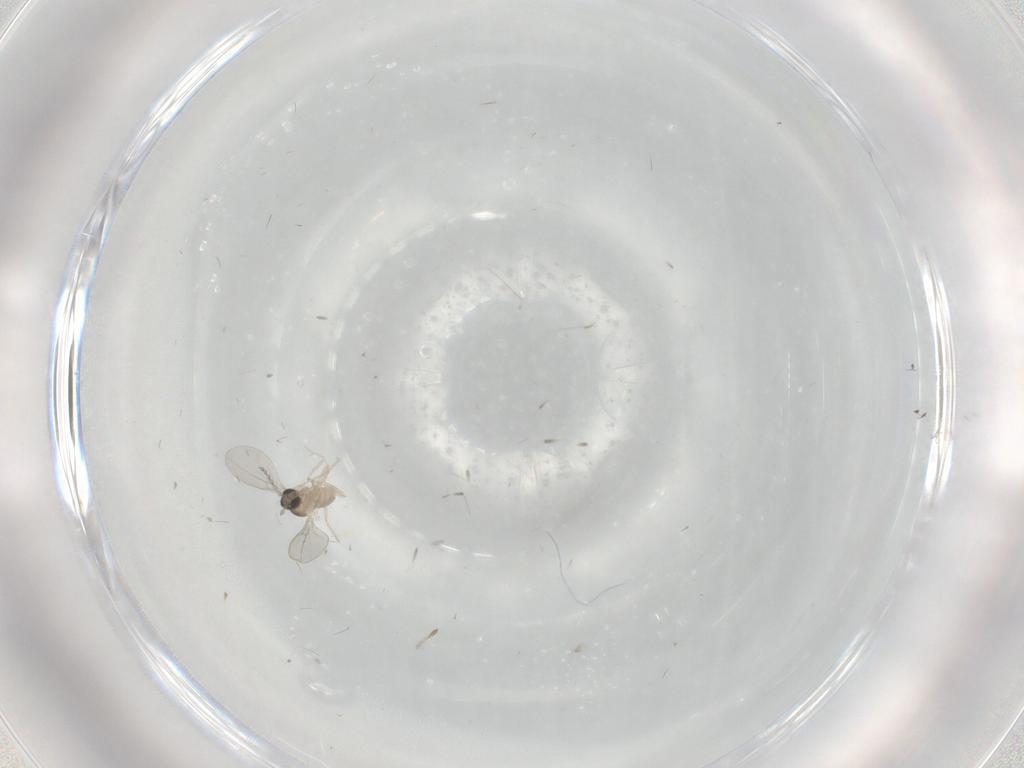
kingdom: Animalia
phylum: Arthropoda
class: Insecta
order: Diptera
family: Cecidomyiidae
